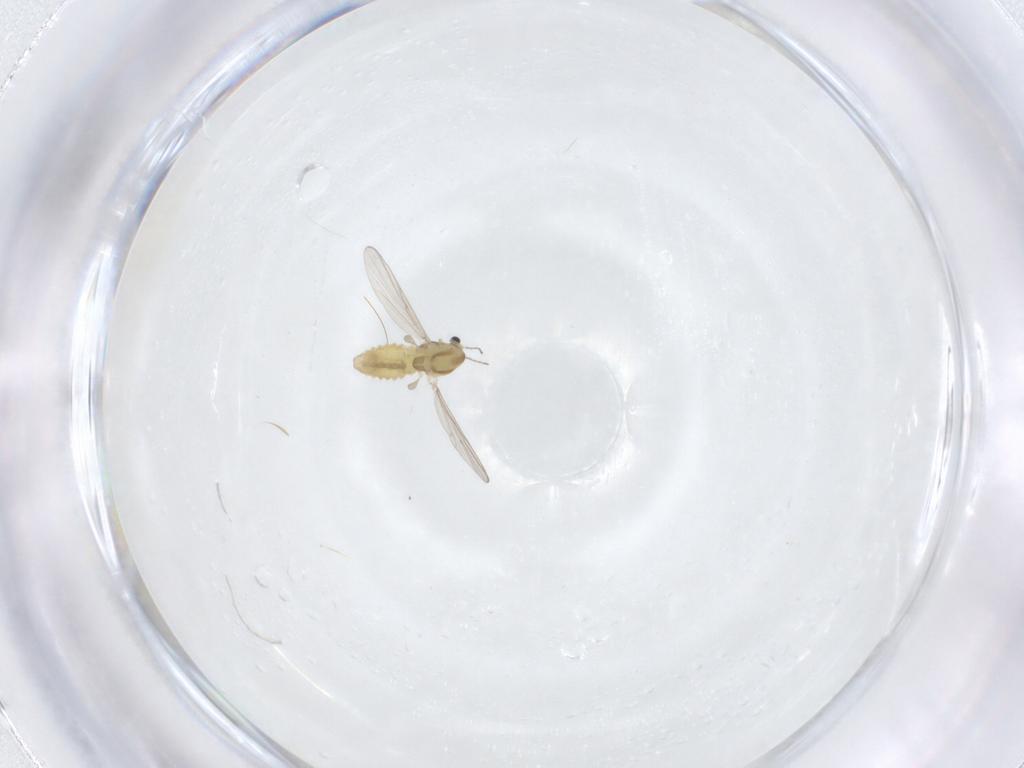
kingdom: Animalia
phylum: Arthropoda
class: Insecta
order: Diptera
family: Chironomidae
